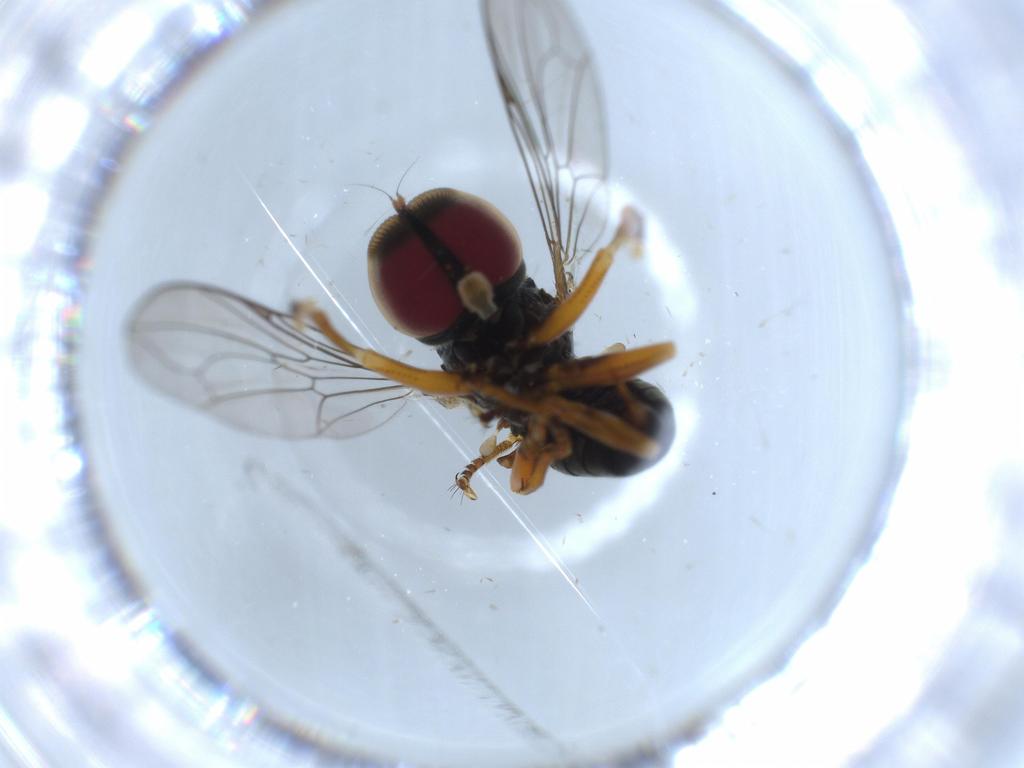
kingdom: Animalia
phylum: Arthropoda
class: Insecta
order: Diptera
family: Pipunculidae
